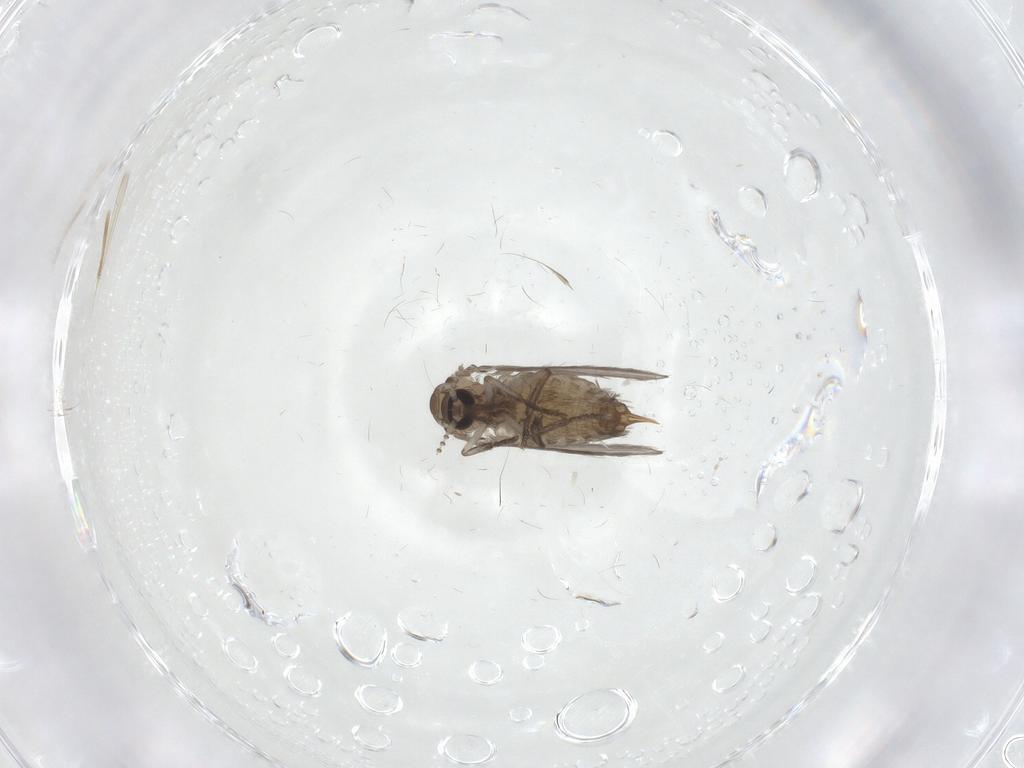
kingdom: Animalia
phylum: Arthropoda
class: Insecta
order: Diptera
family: Psychodidae
